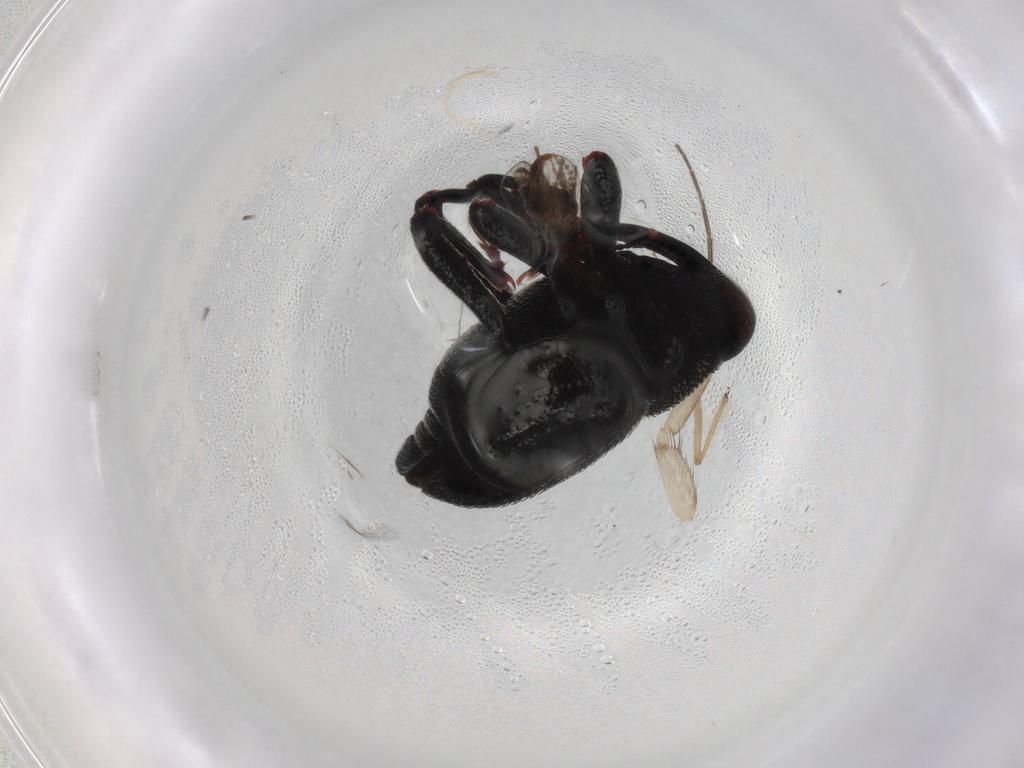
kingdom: Animalia
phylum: Arthropoda
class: Insecta
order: Coleoptera
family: Curculionidae
